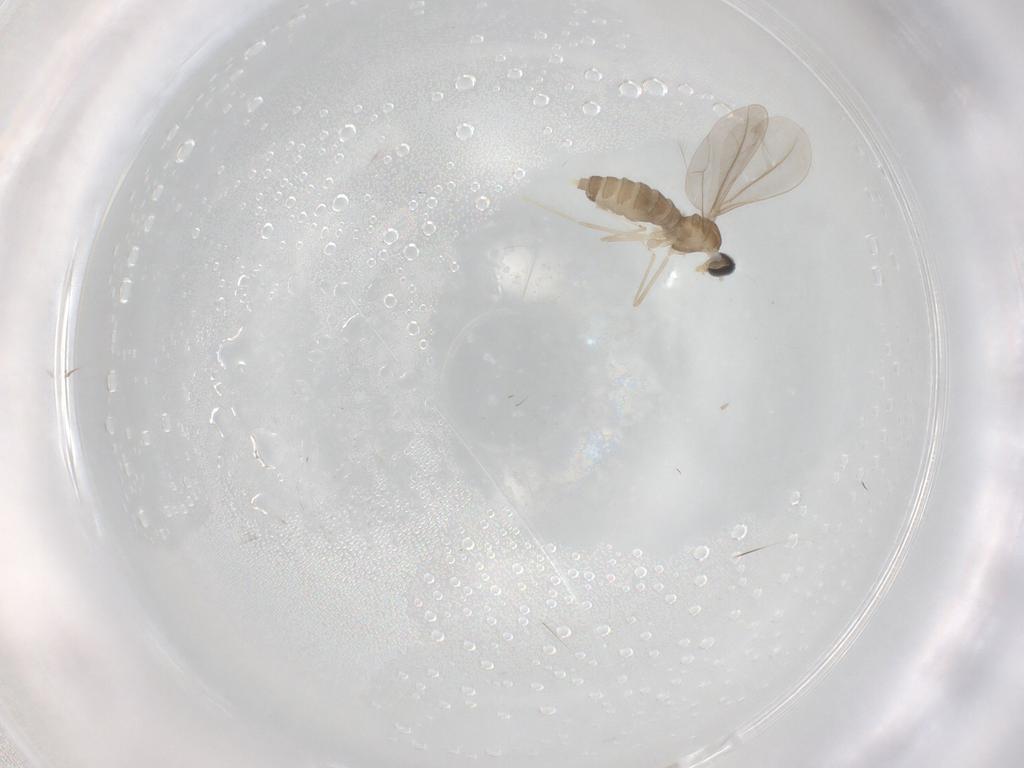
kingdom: Animalia
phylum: Arthropoda
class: Insecta
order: Diptera
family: Cecidomyiidae
